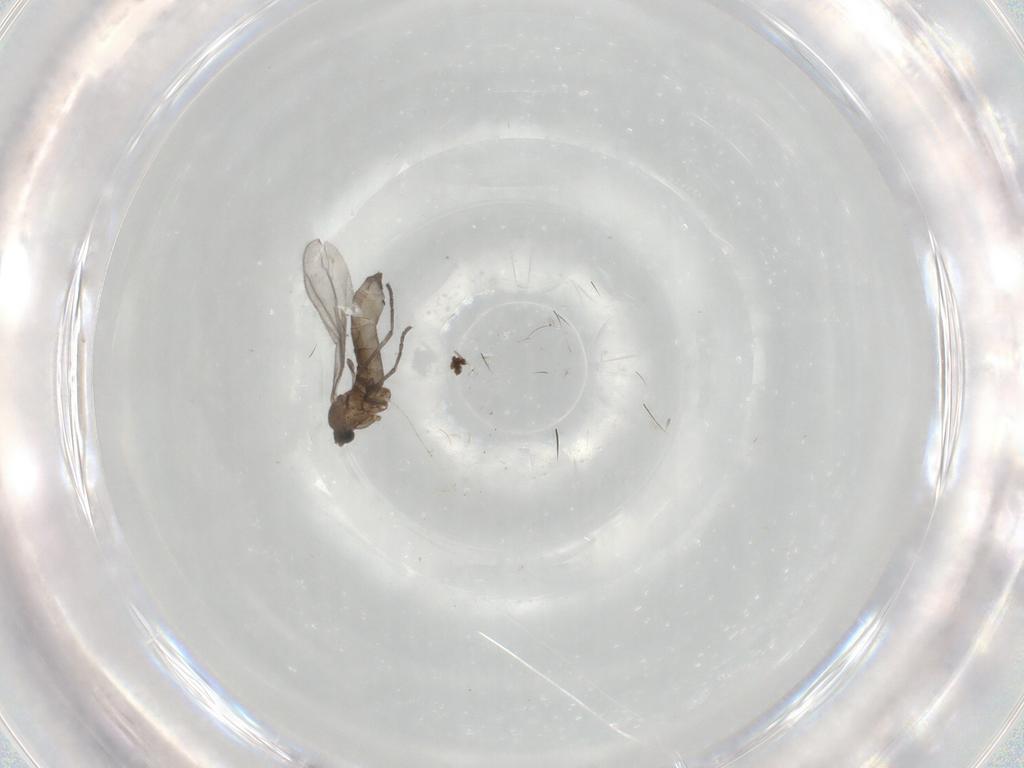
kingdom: Animalia
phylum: Arthropoda
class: Insecta
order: Diptera
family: Sciaridae
